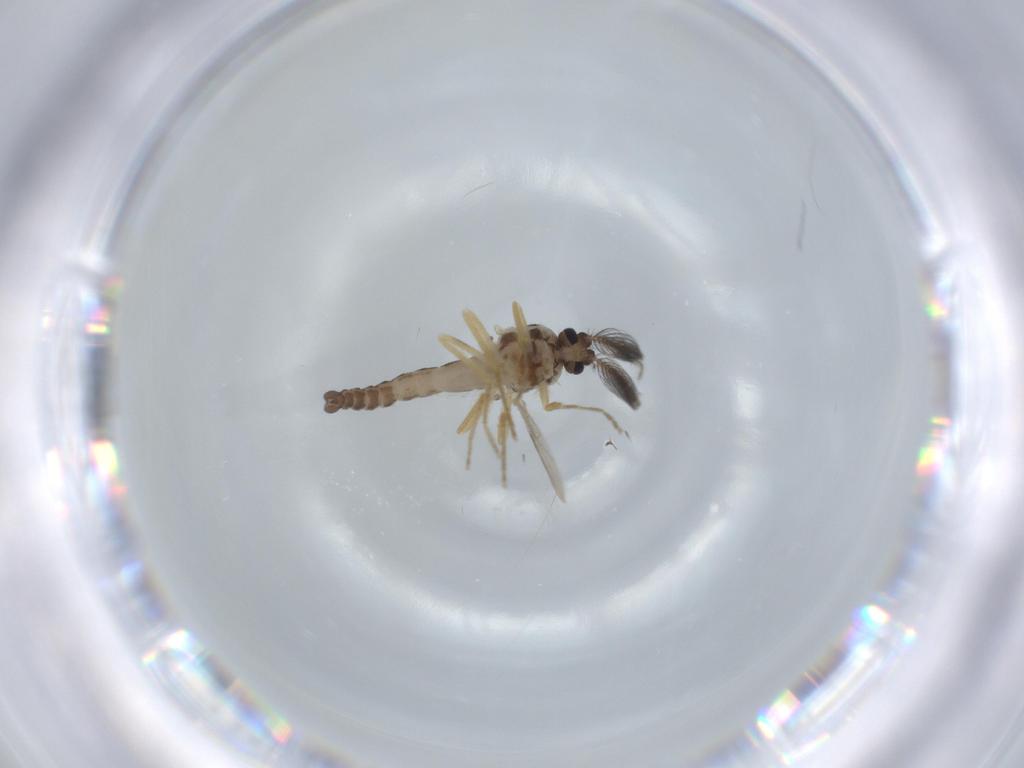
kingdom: Animalia
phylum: Arthropoda
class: Insecta
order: Diptera
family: Ceratopogonidae
